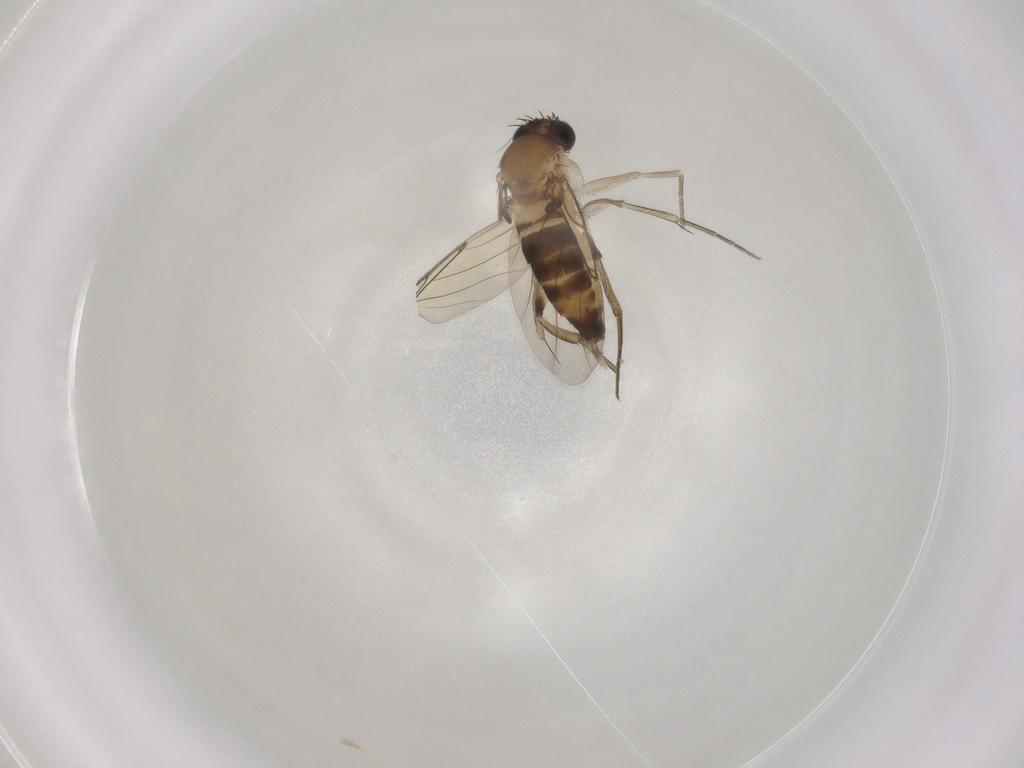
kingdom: Animalia
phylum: Arthropoda
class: Insecta
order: Diptera
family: Phoridae
